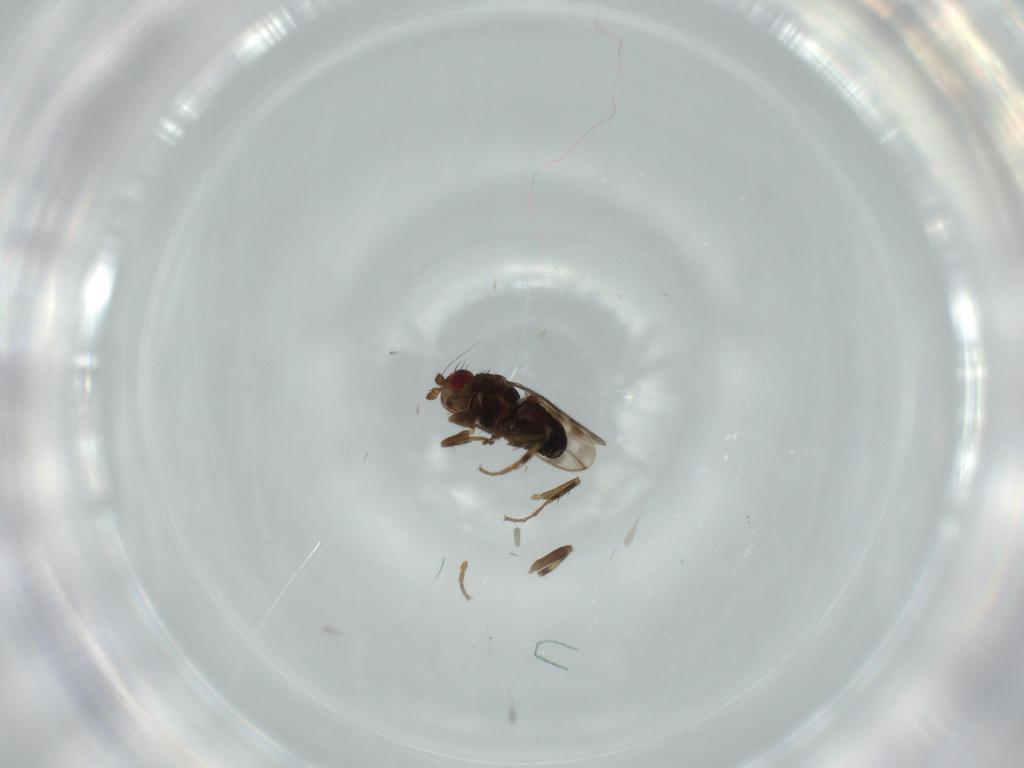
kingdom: Animalia
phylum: Arthropoda
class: Insecta
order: Diptera
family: Sphaeroceridae
